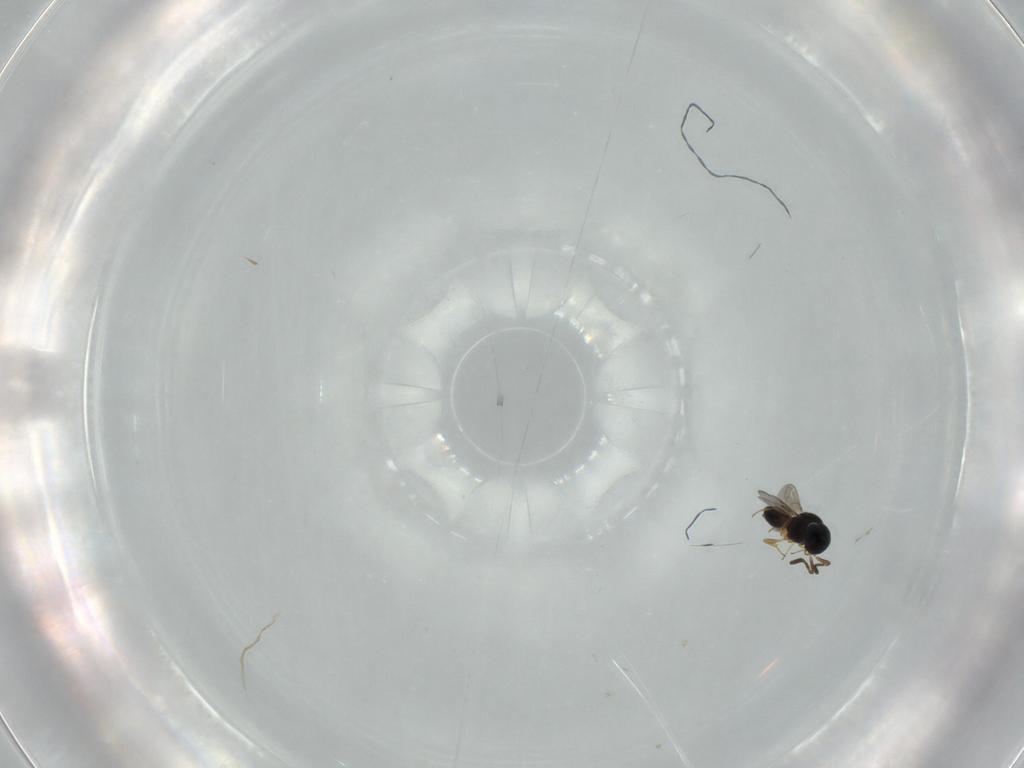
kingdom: Animalia
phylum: Arthropoda
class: Insecta
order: Hymenoptera
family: Scelionidae
